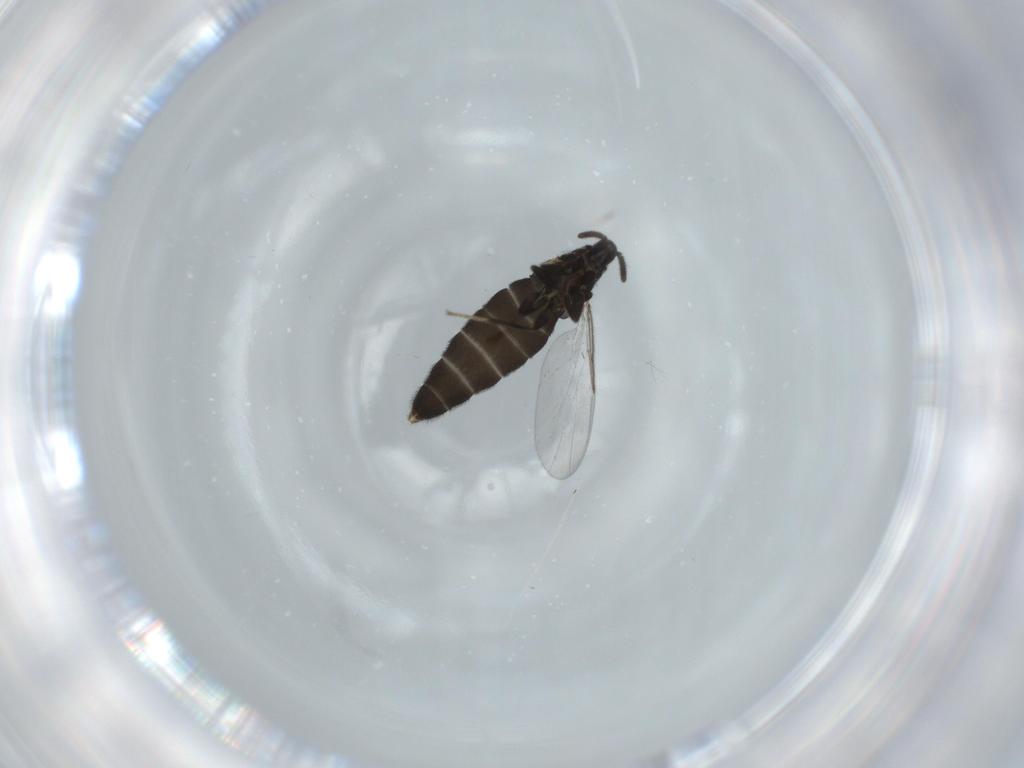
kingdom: Animalia
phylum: Arthropoda
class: Insecta
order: Diptera
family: Scatopsidae
